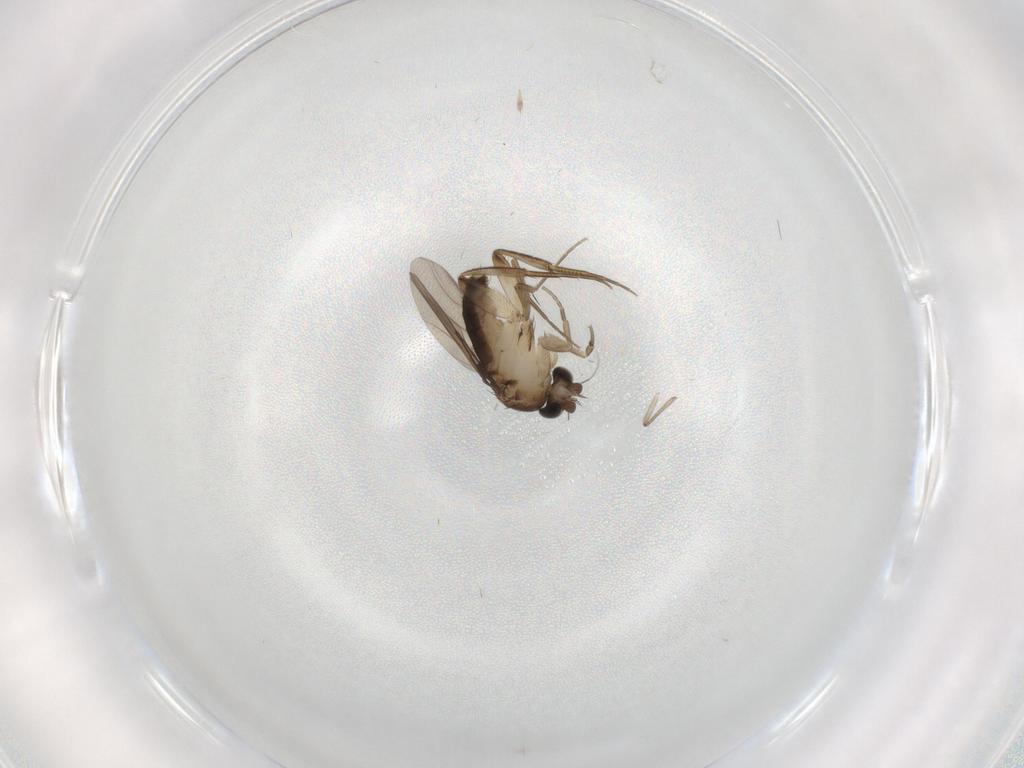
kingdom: Animalia
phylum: Arthropoda
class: Insecta
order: Diptera
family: Phoridae
